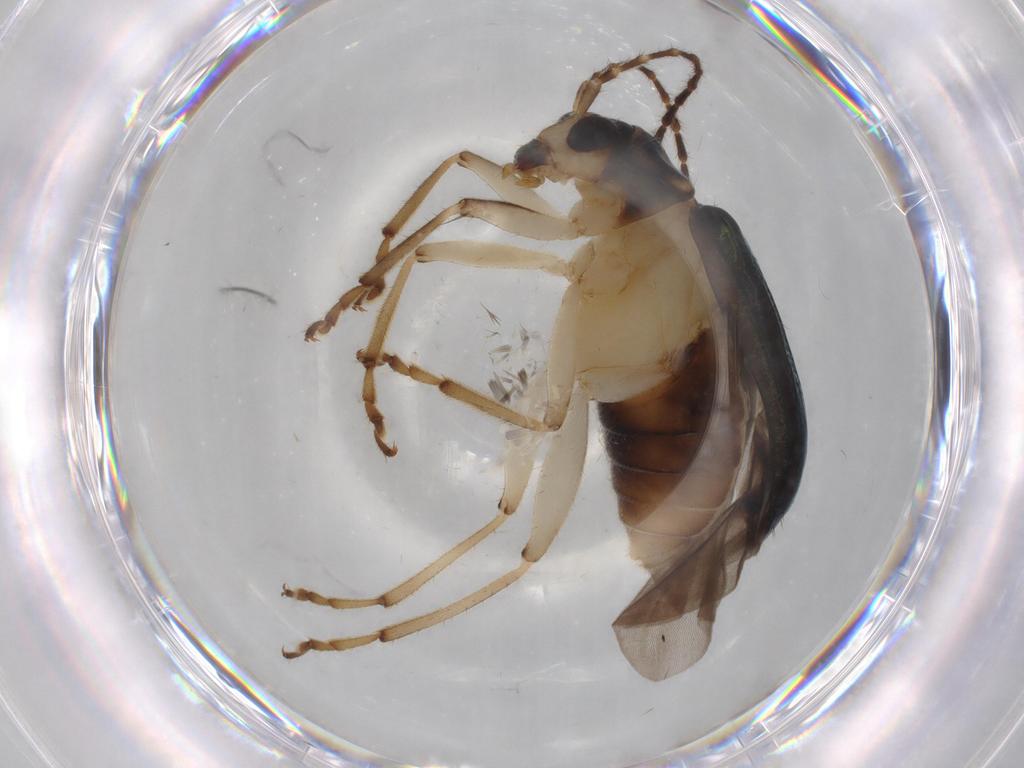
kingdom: Animalia
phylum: Arthropoda
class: Insecta
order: Coleoptera
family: Chrysomelidae
